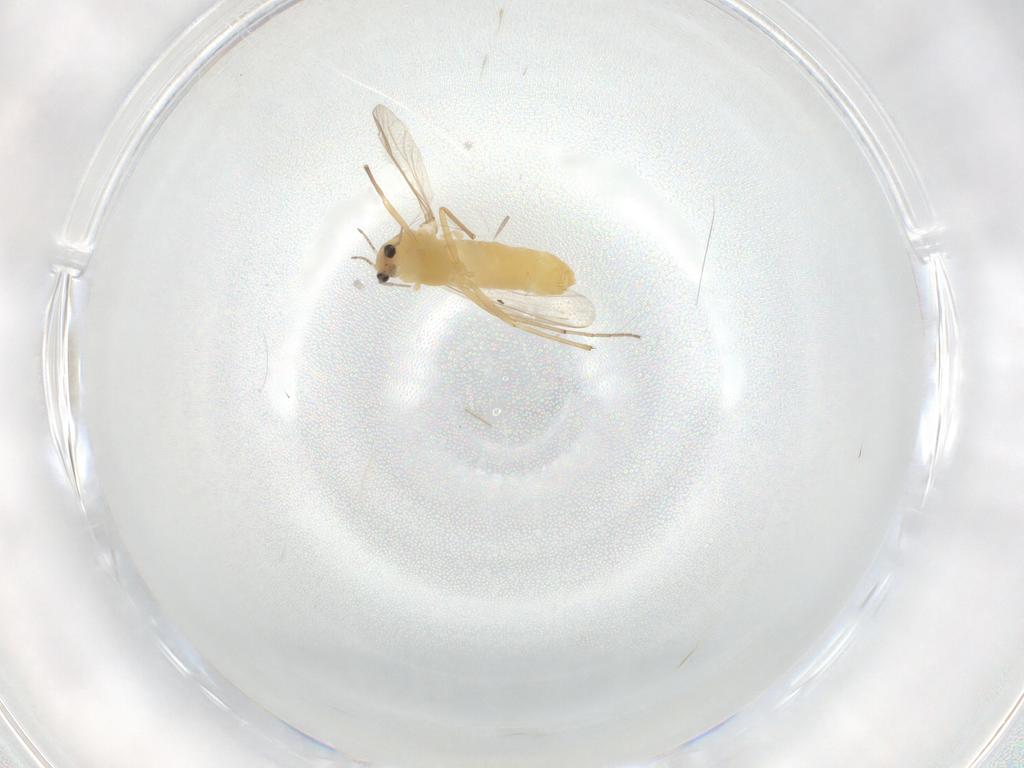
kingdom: Animalia
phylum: Arthropoda
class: Insecta
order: Diptera
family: Chironomidae
